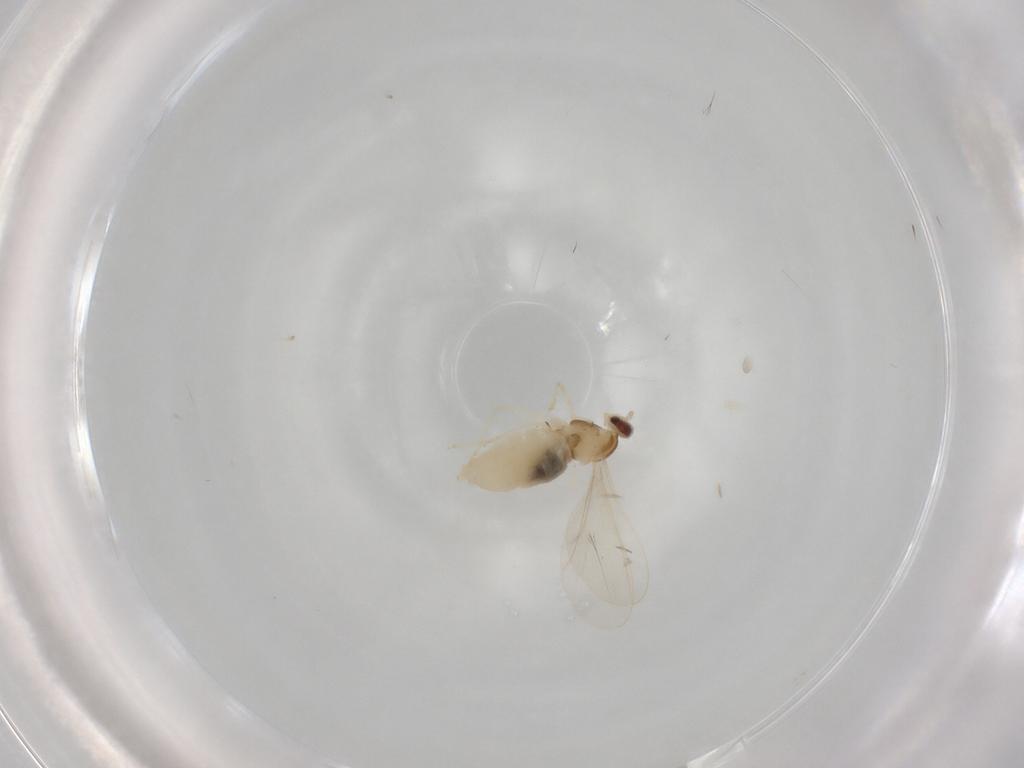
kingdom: Animalia
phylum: Arthropoda
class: Insecta
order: Diptera
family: Cecidomyiidae
